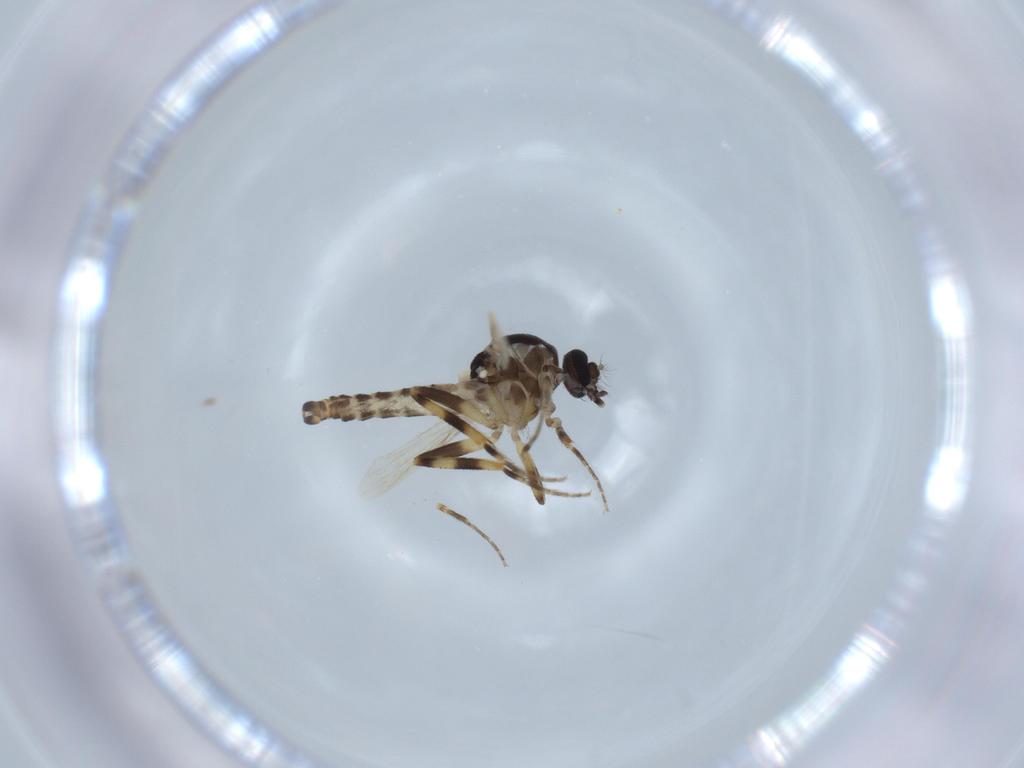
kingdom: Animalia
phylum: Arthropoda
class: Insecta
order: Diptera
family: Ceratopogonidae
